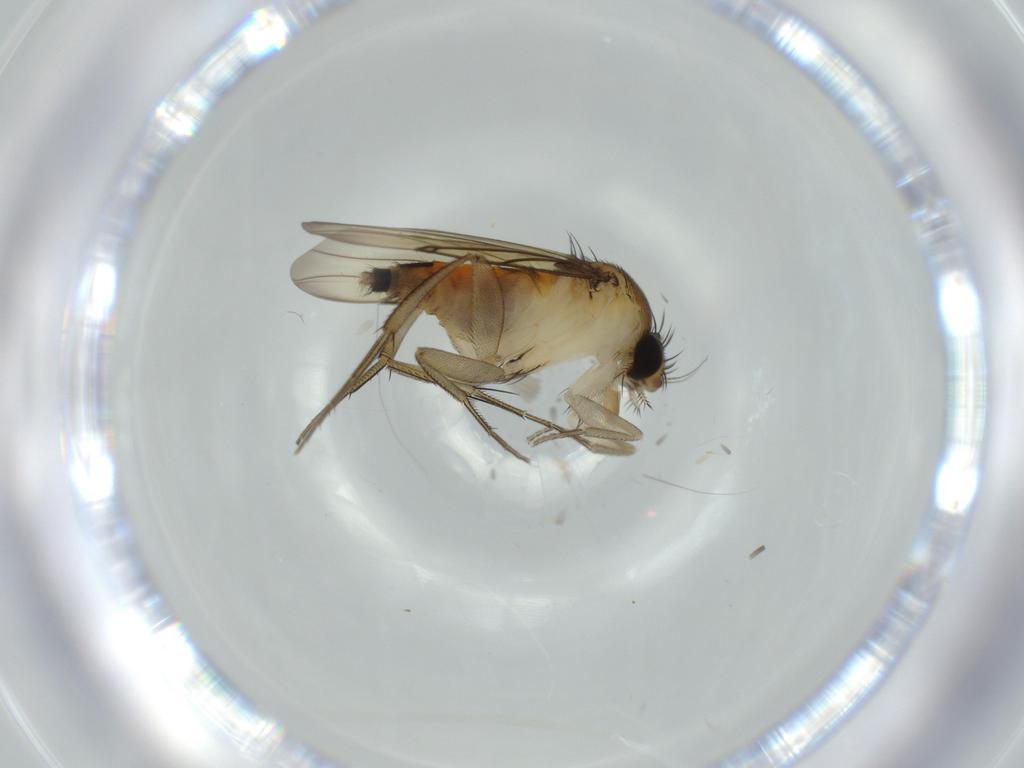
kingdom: Animalia
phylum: Arthropoda
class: Insecta
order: Diptera
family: Phoridae
